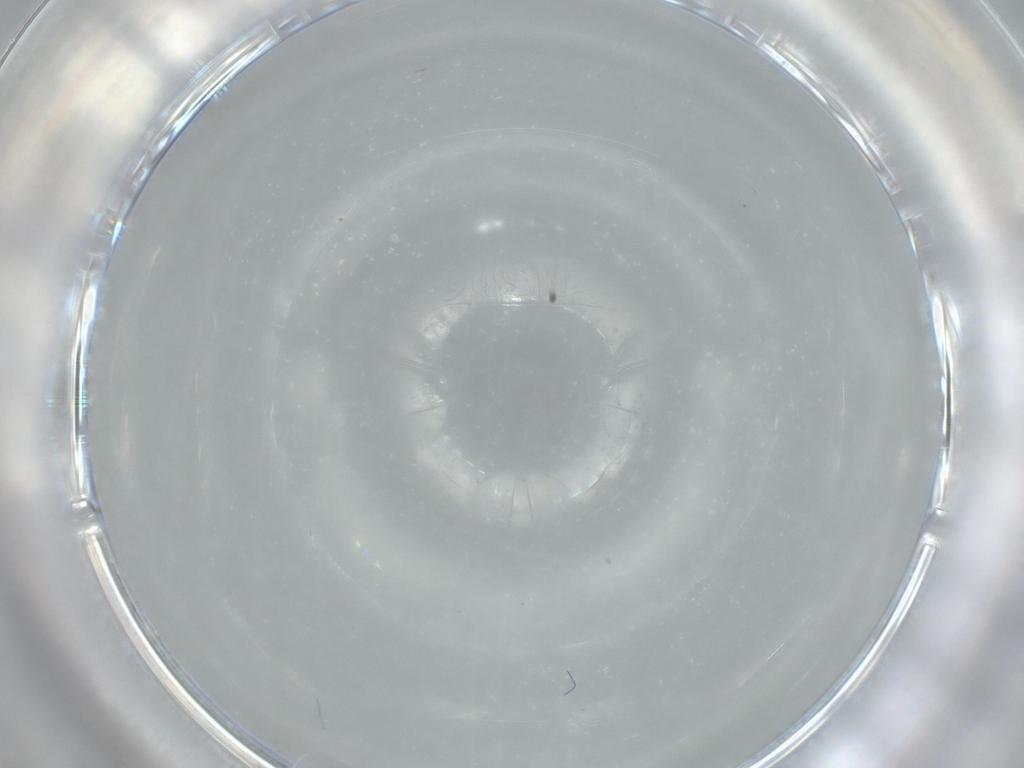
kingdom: Animalia
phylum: Arthropoda
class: Insecta
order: Hymenoptera
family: Mymaridae
